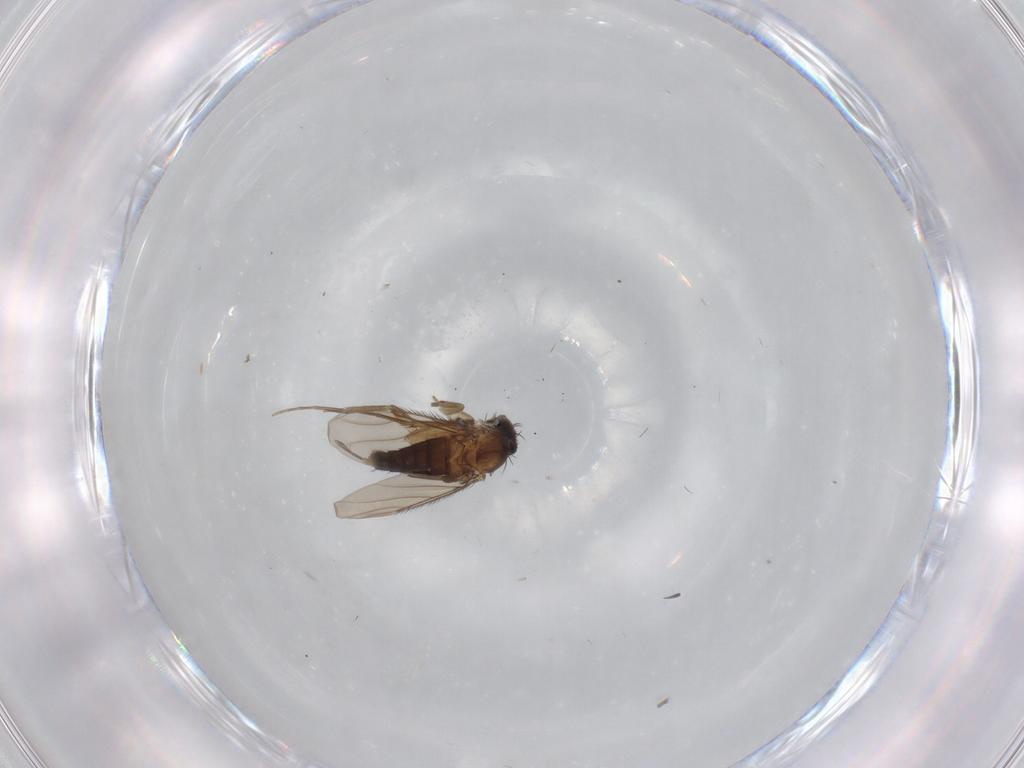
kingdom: Animalia
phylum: Arthropoda
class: Insecta
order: Diptera
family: Phoridae
